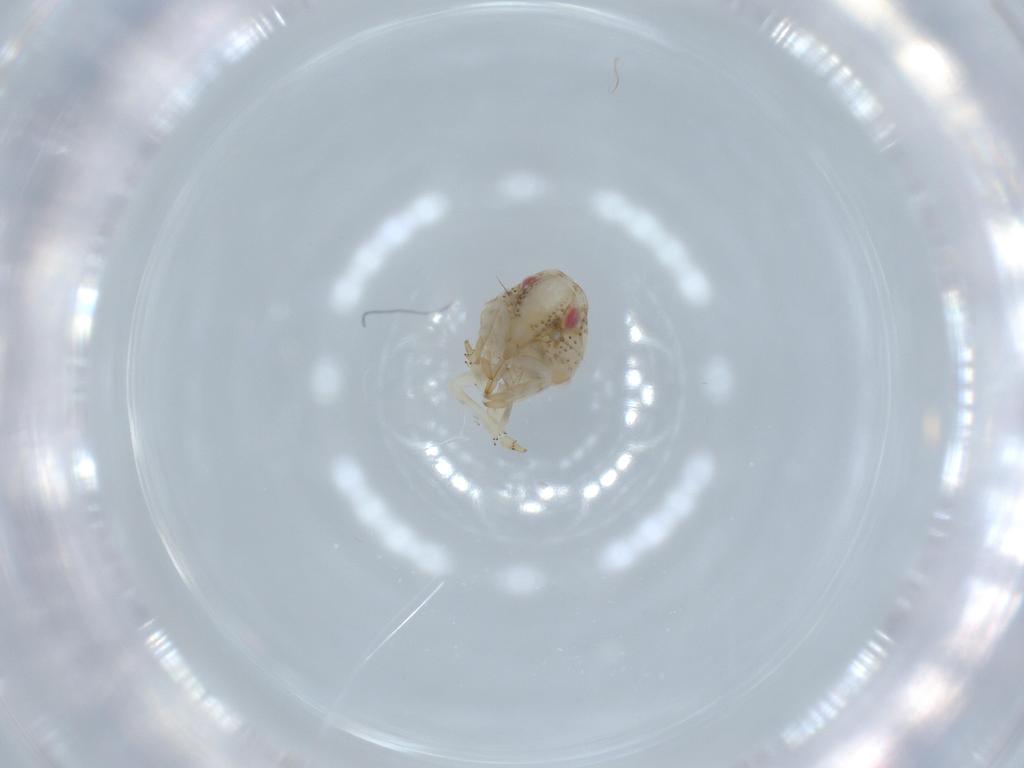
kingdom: Animalia
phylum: Arthropoda
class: Insecta
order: Hemiptera
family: Acanaloniidae
